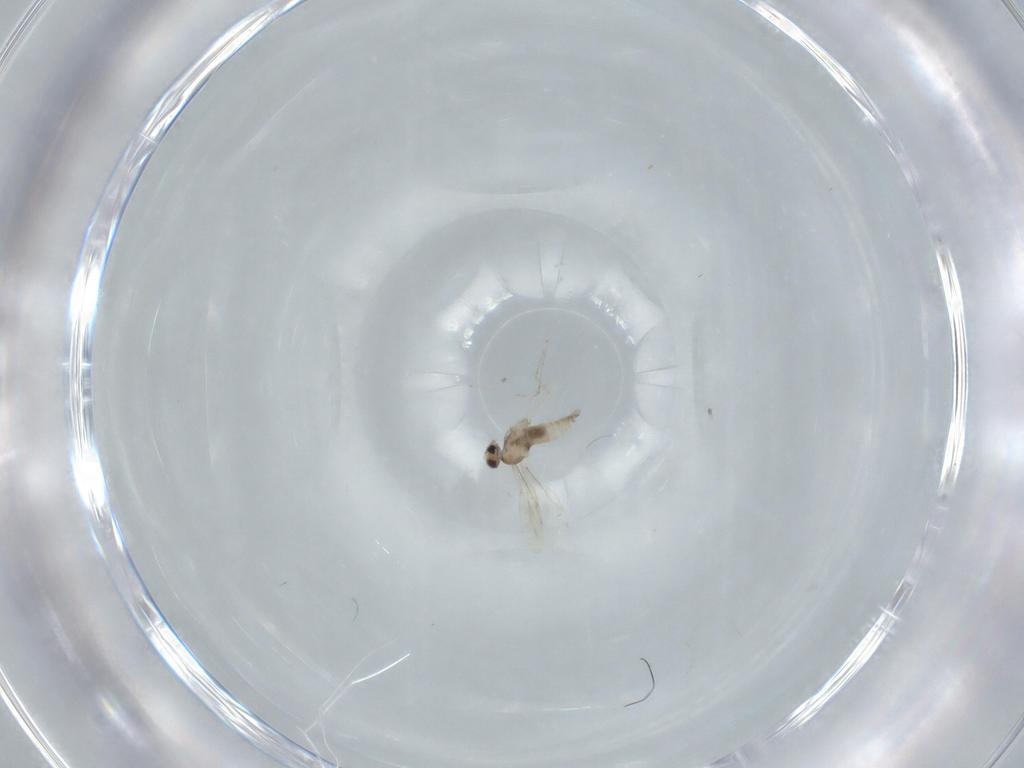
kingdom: Animalia
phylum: Arthropoda
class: Insecta
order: Diptera
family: Cecidomyiidae
